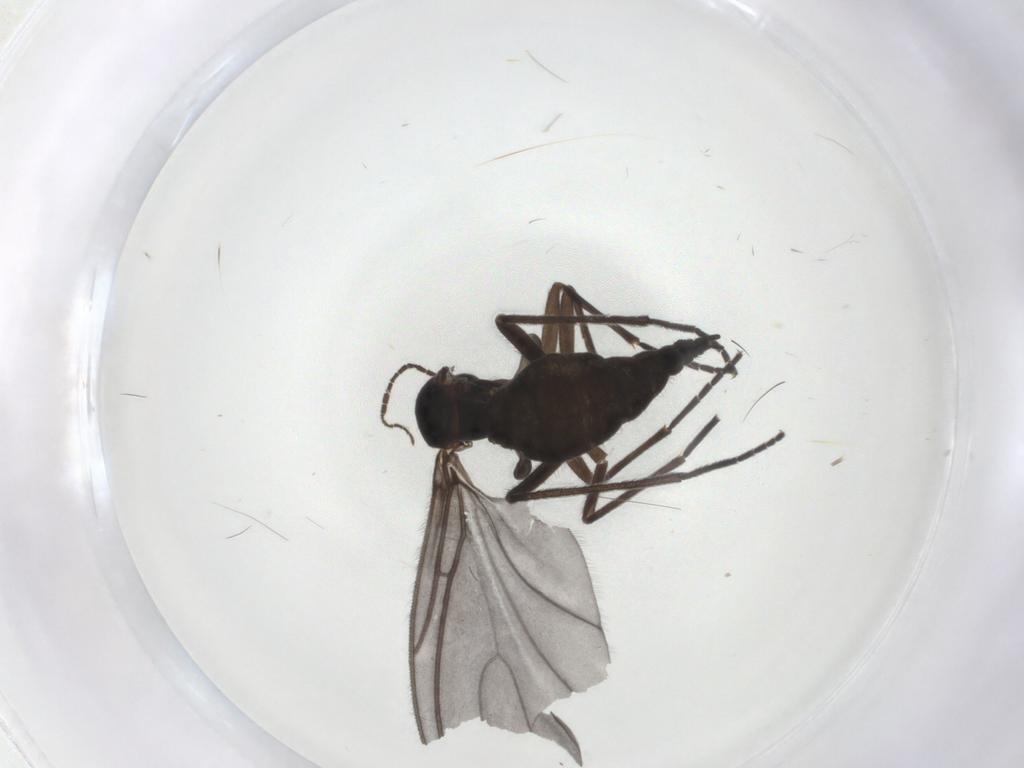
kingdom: Animalia
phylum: Arthropoda
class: Insecta
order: Diptera
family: Sciaridae
